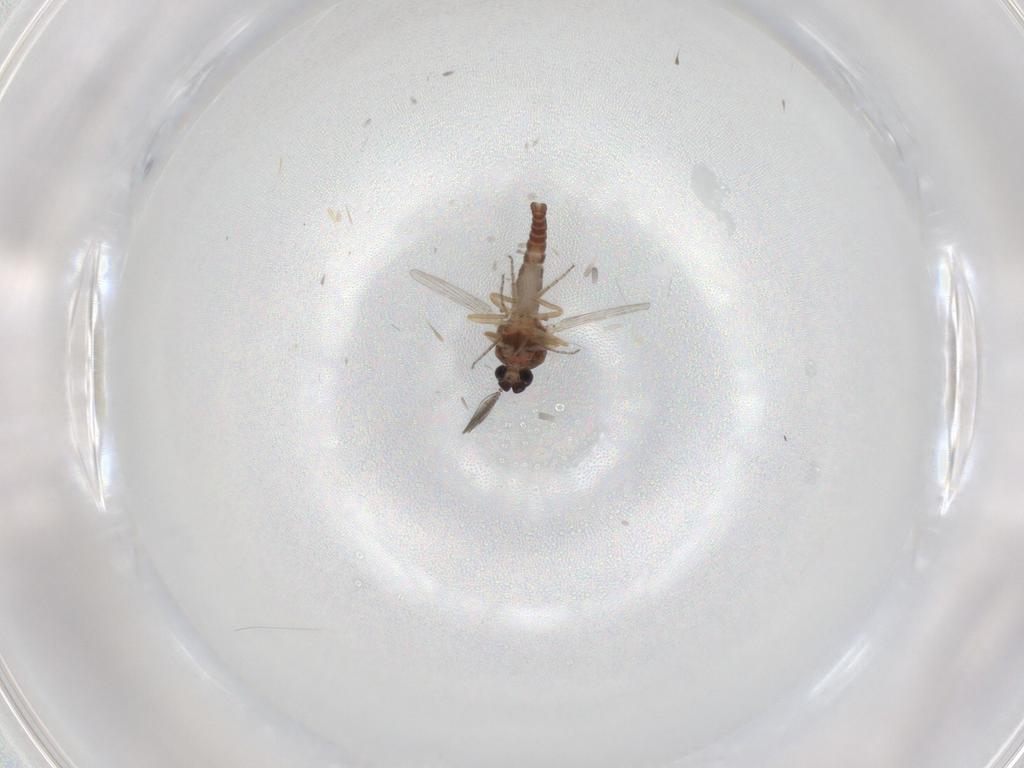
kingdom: Animalia
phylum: Arthropoda
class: Insecta
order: Diptera
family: Ceratopogonidae
